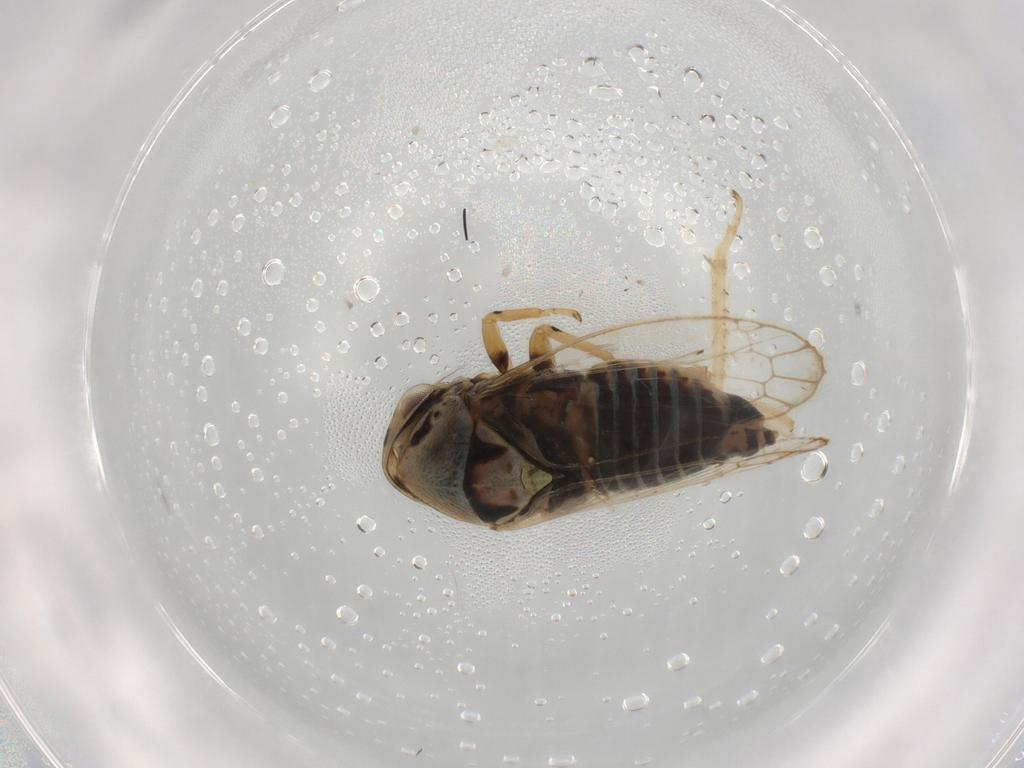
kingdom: Animalia
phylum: Arthropoda
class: Insecta
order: Hemiptera
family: Cicadellidae
